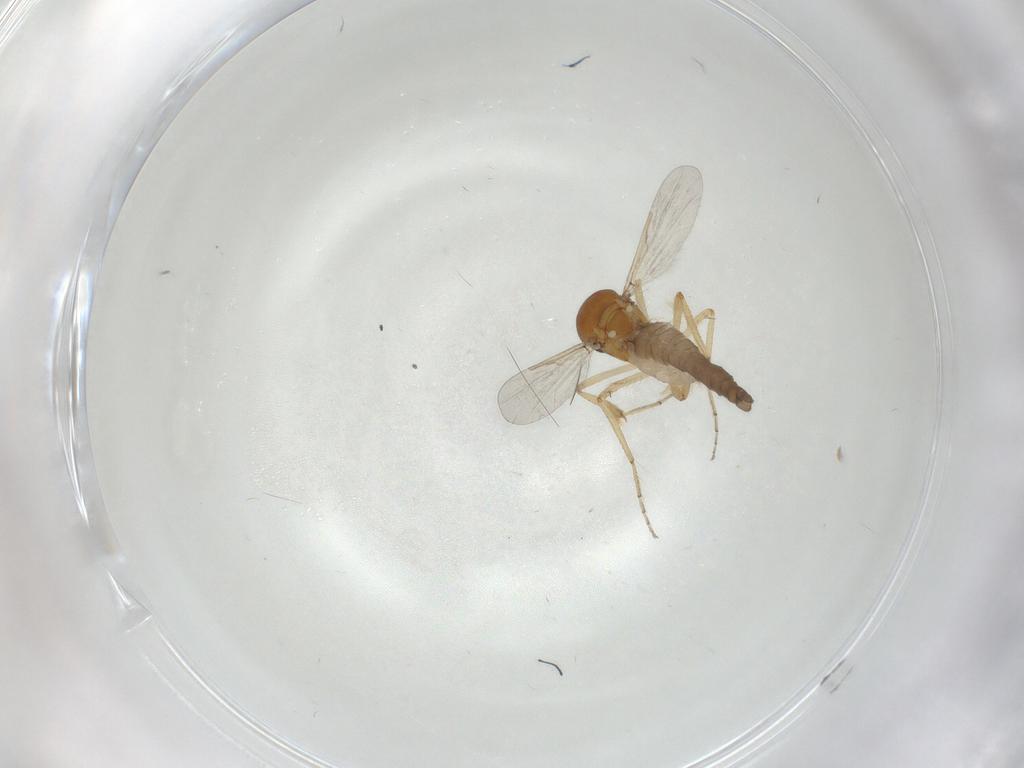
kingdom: Animalia
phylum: Arthropoda
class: Insecta
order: Diptera
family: Ceratopogonidae
